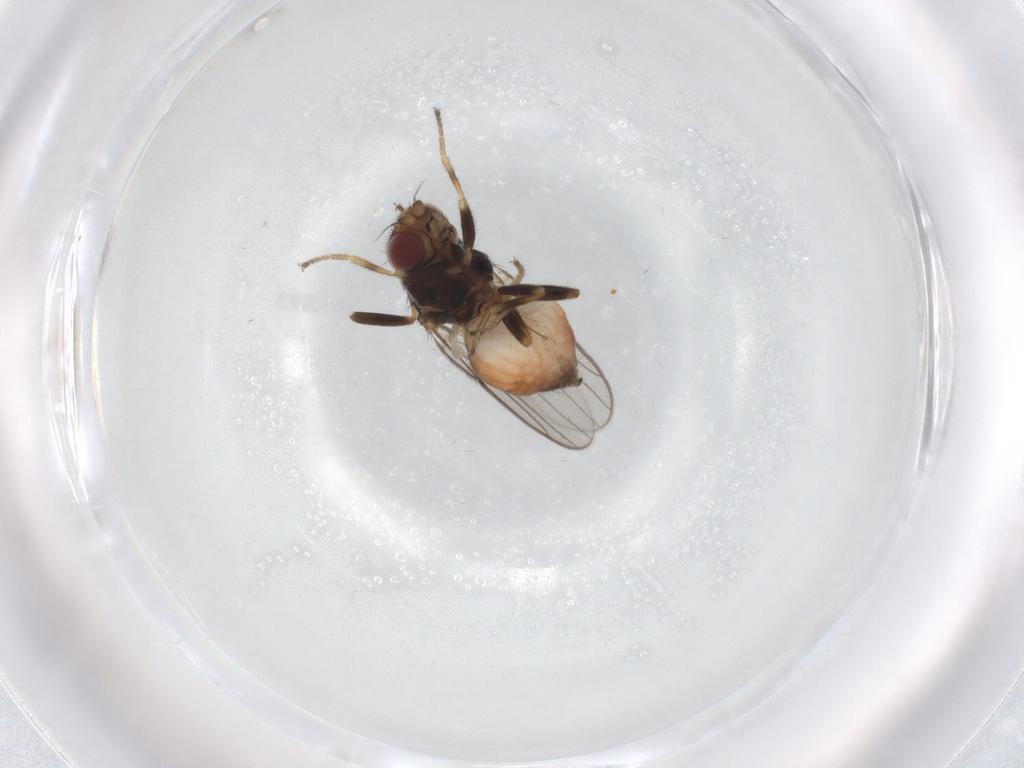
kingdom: Animalia
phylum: Arthropoda
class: Insecta
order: Diptera
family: Chloropidae
